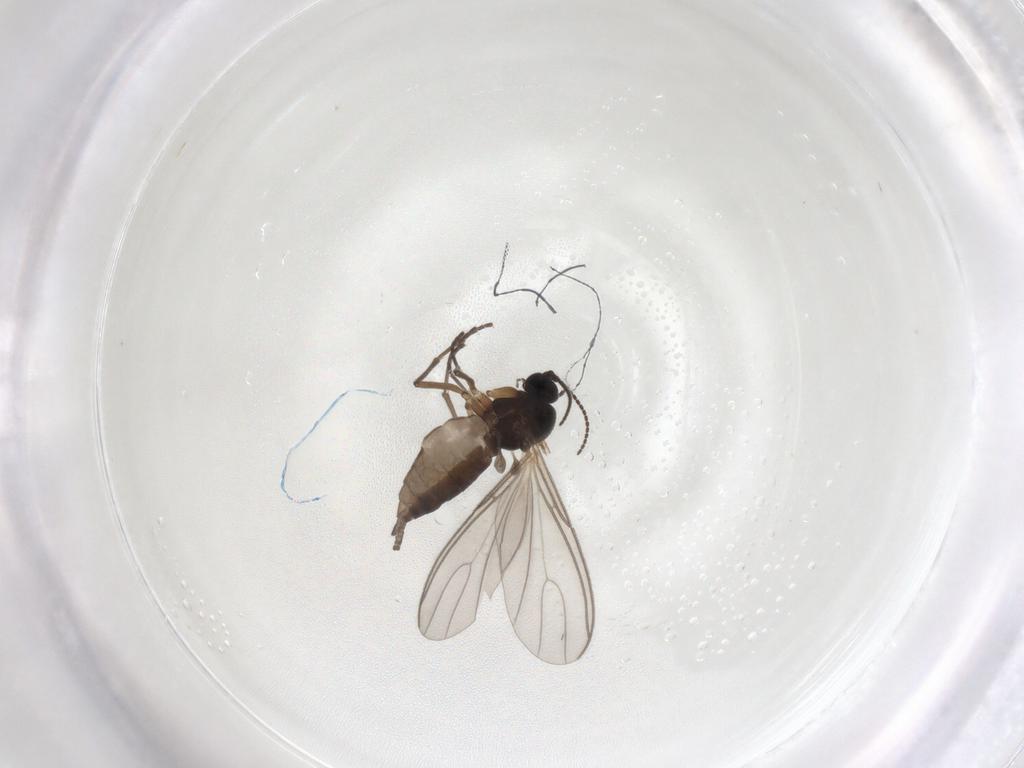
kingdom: Animalia
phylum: Arthropoda
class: Insecta
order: Diptera
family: Sciaridae
